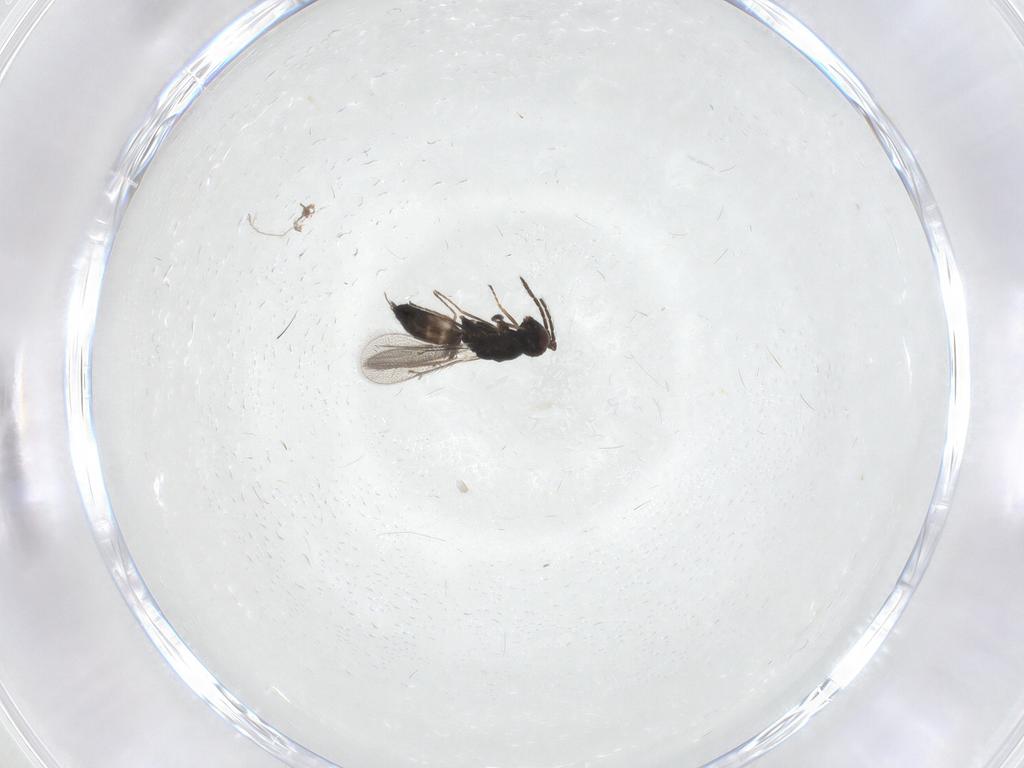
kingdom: Animalia
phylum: Arthropoda
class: Insecta
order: Hymenoptera
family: Eulophidae
